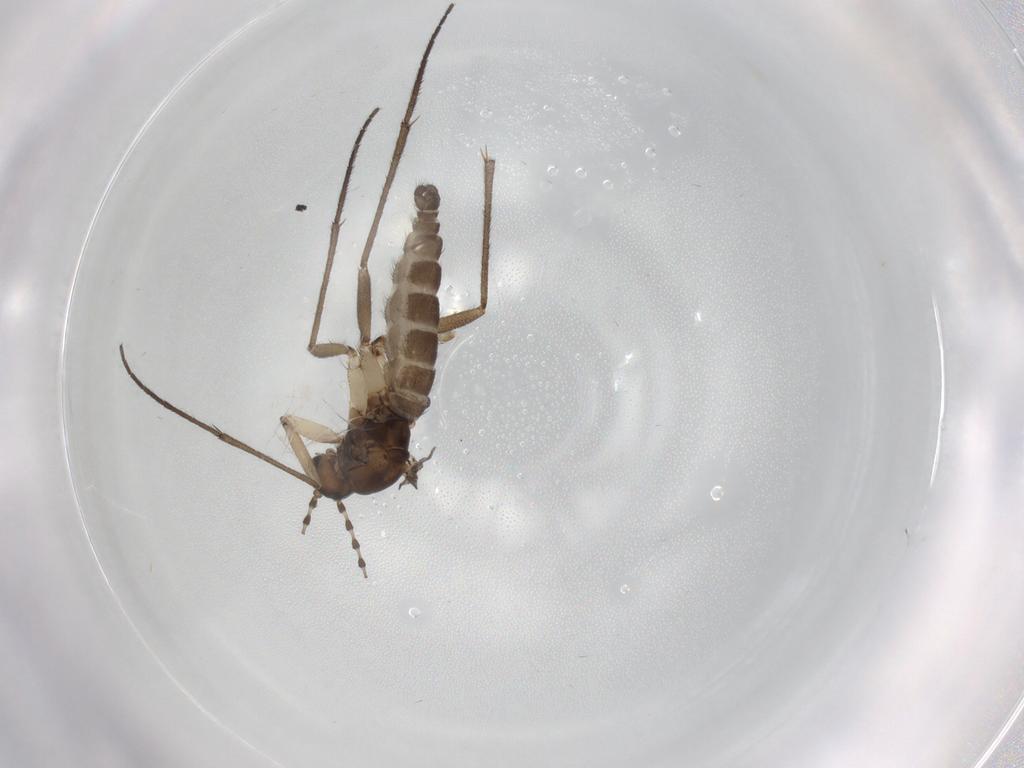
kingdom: Animalia
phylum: Arthropoda
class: Insecta
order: Diptera
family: Sciaridae
